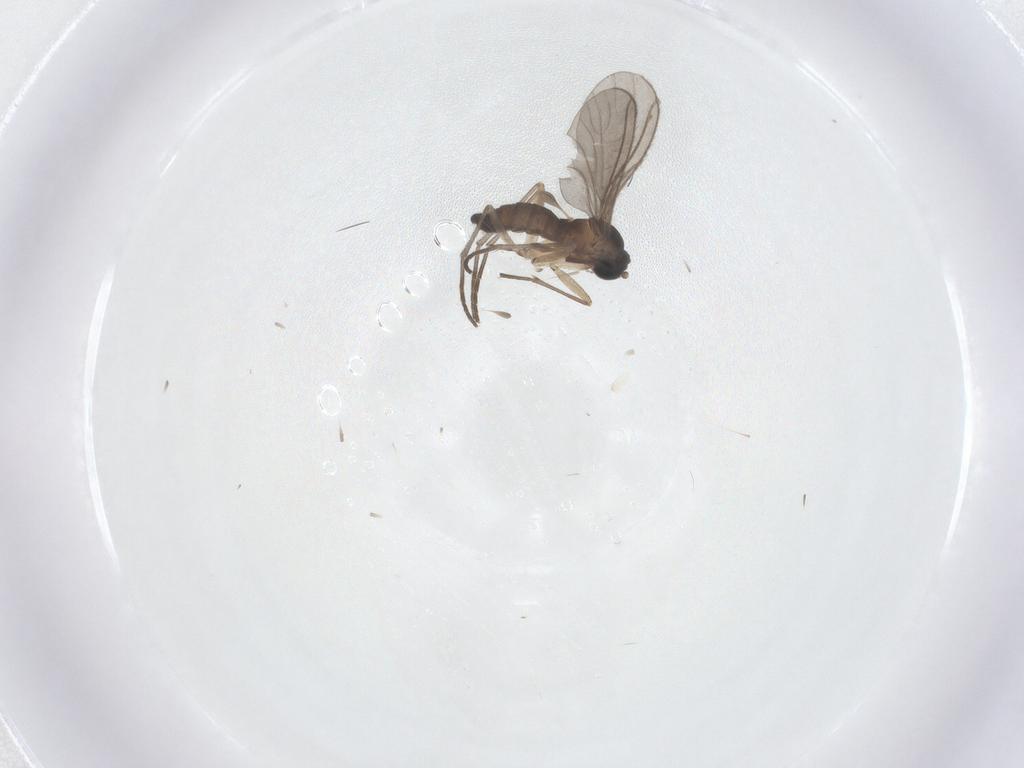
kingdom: Animalia
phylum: Arthropoda
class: Insecta
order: Diptera
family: Sciaridae
